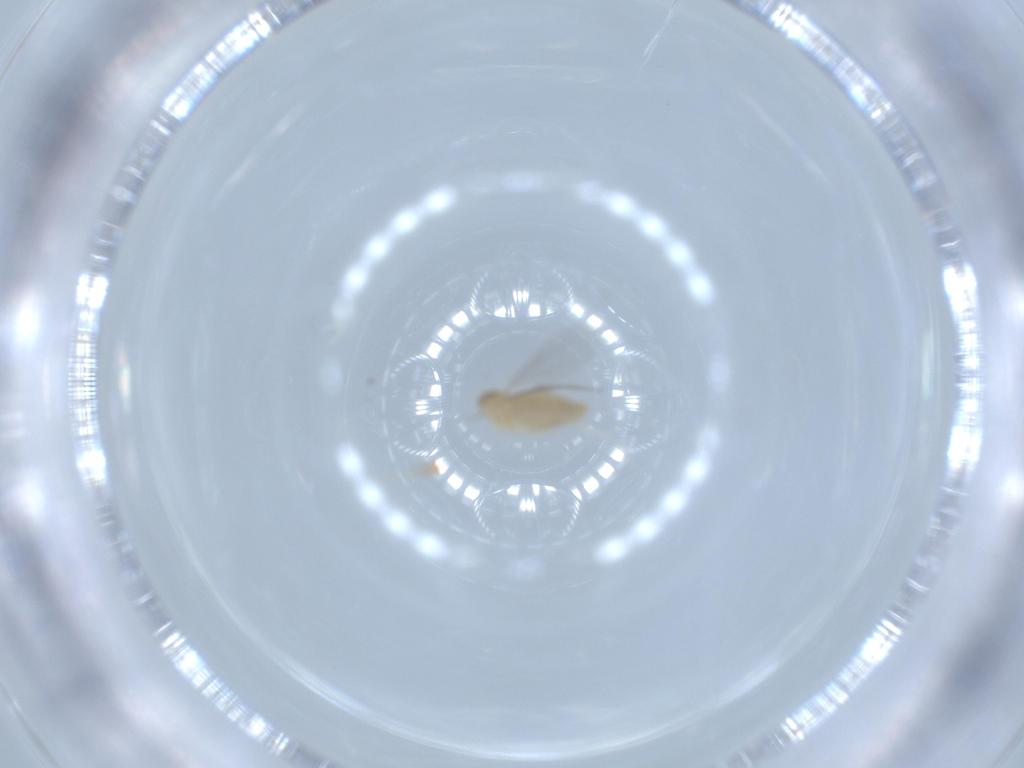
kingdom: Animalia
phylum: Arthropoda
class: Insecta
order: Diptera
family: Cecidomyiidae
